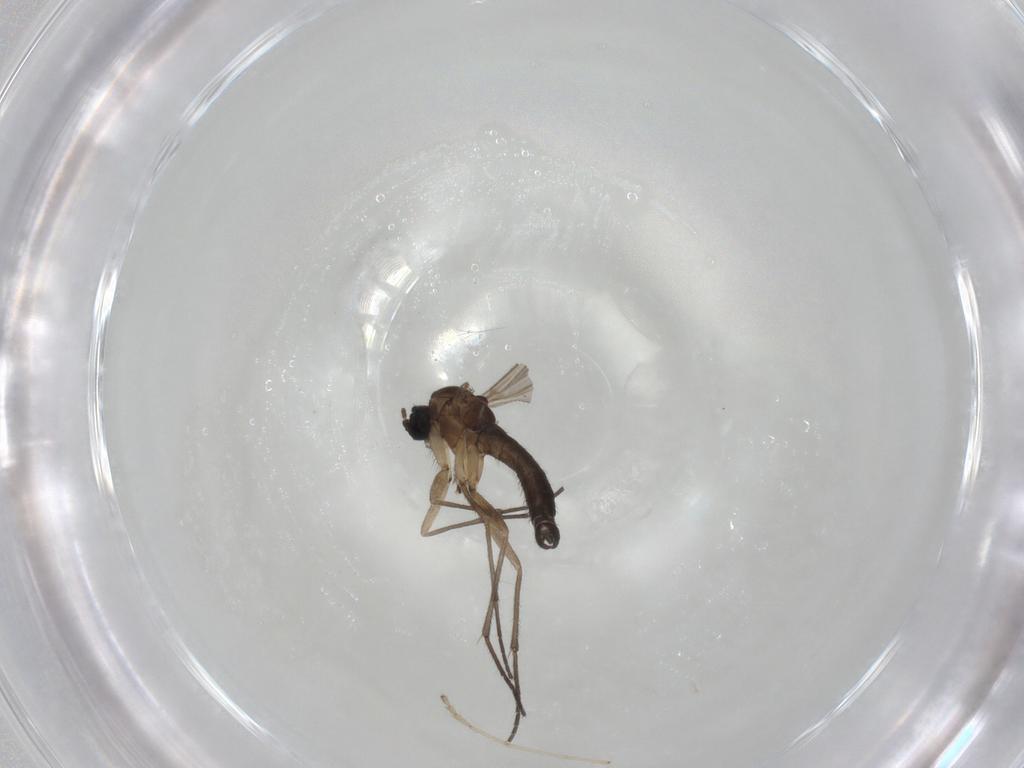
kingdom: Animalia
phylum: Arthropoda
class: Insecta
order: Diptera
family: Sciaridae
